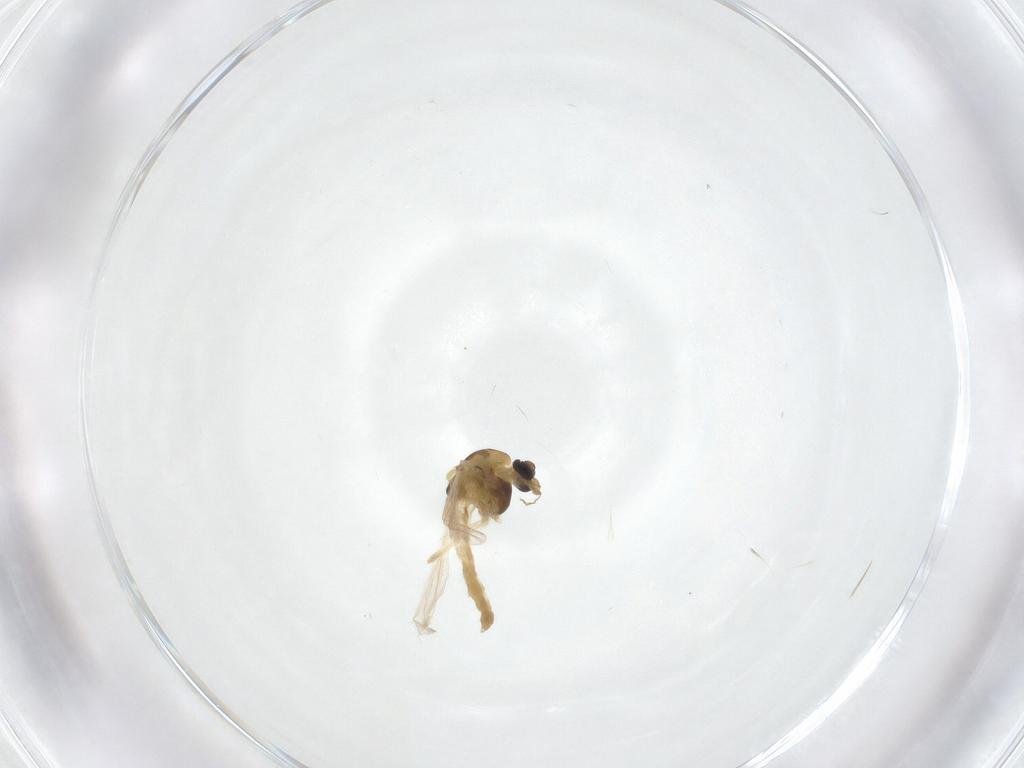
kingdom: Animalia
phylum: Arthropoda
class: Insecta
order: Diptera
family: Chironomidae
